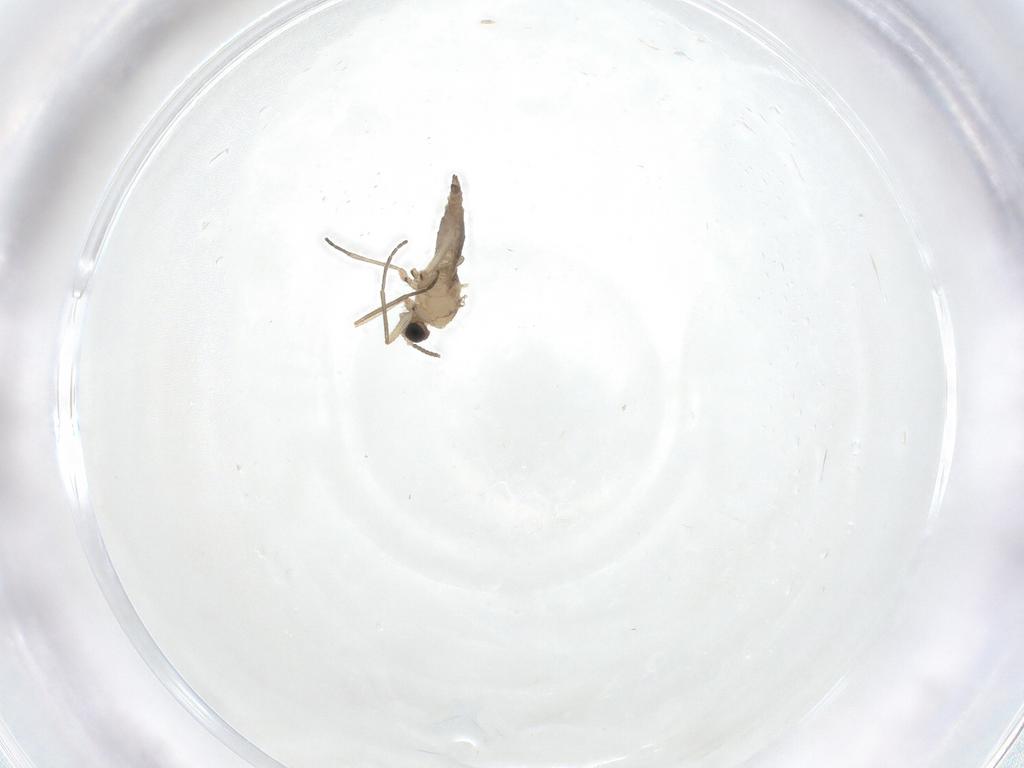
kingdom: Animalia
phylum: Arthropoda
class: Insecta
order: Diptera
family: Sciaridae
